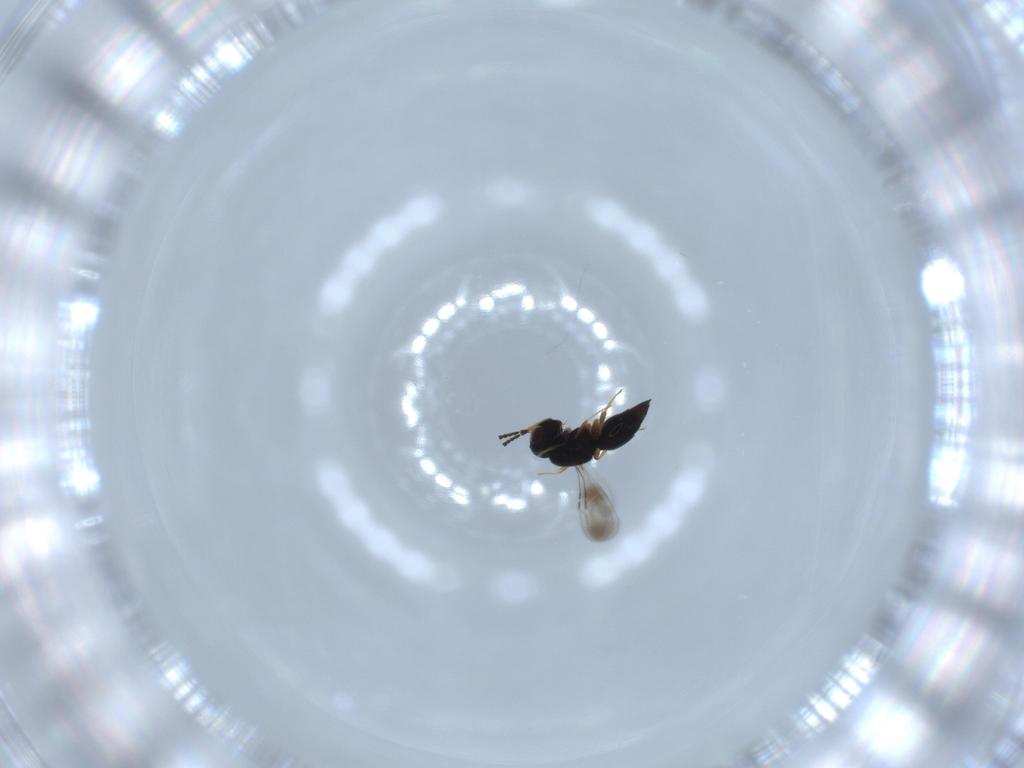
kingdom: Animalia
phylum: Arthropoda
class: Insecta
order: Hymenoptera
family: Ceraphronidae
